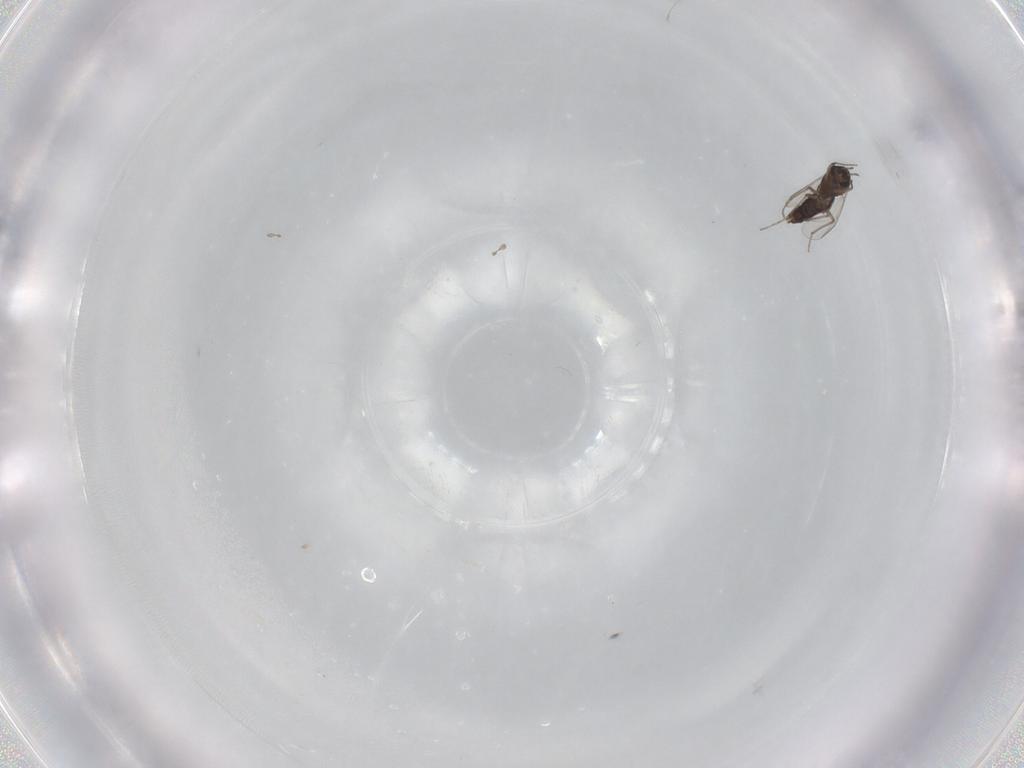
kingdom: Animalia
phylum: Arthropoda
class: Insecta
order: Diptera
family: Chironomidae
